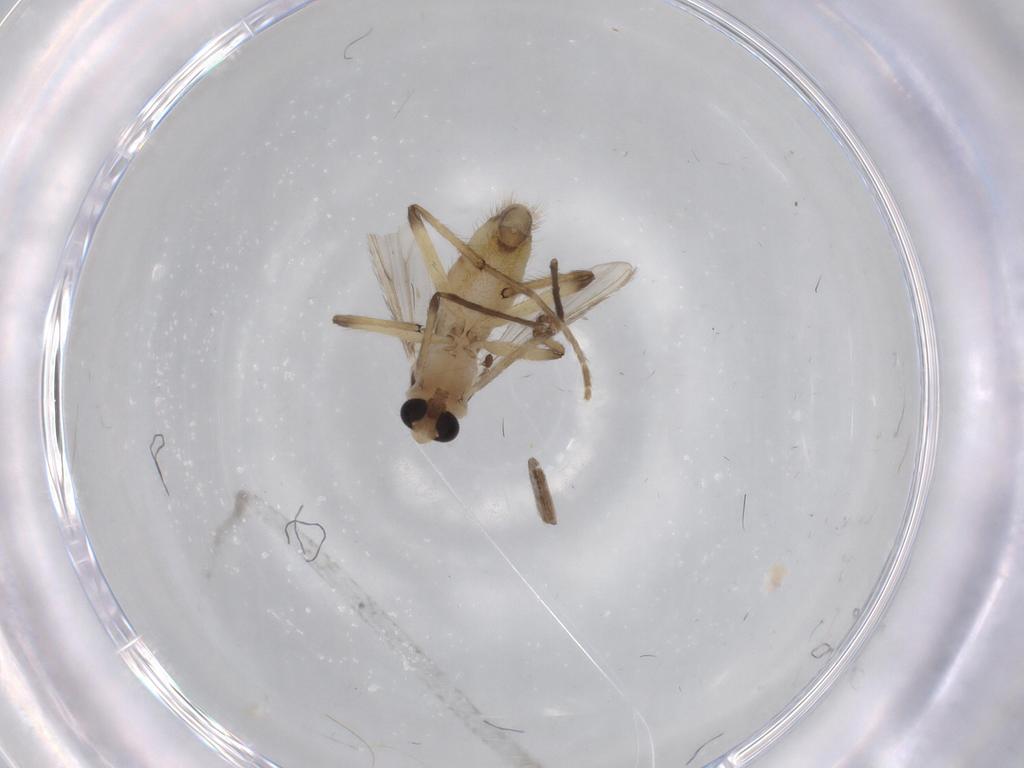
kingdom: Animalia
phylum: Arthropoda
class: Insecta
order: Diptera
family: Chironomidae
